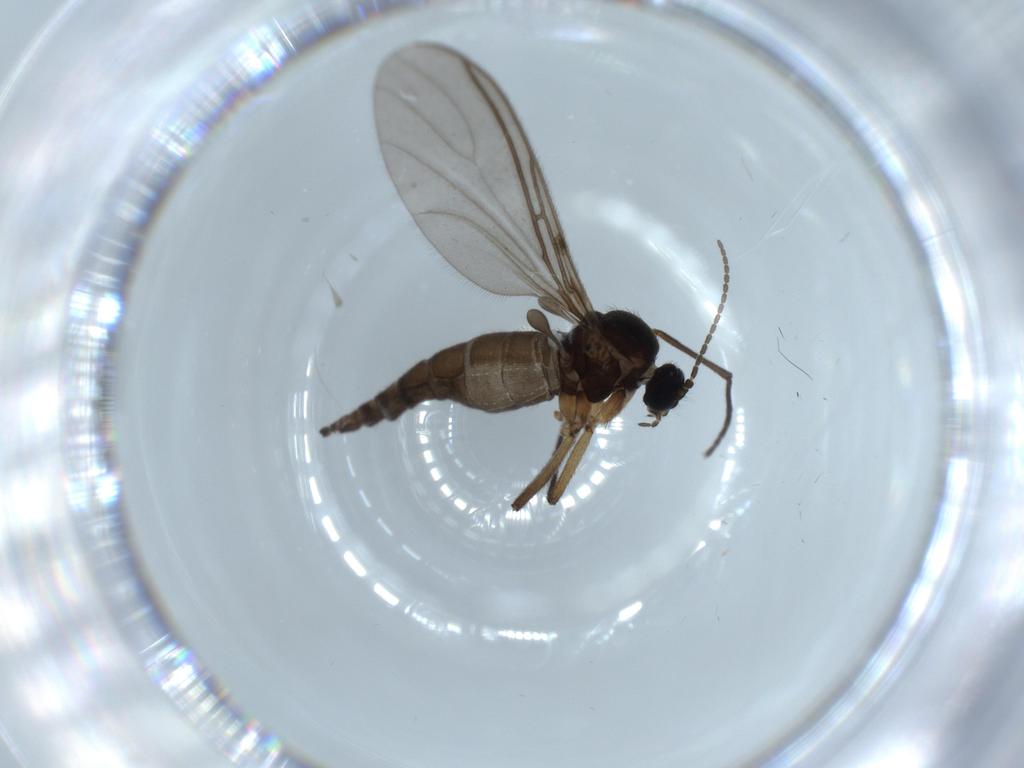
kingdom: Animalia
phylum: Arthropoda
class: Insecta
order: Diptera
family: Sciaridae
